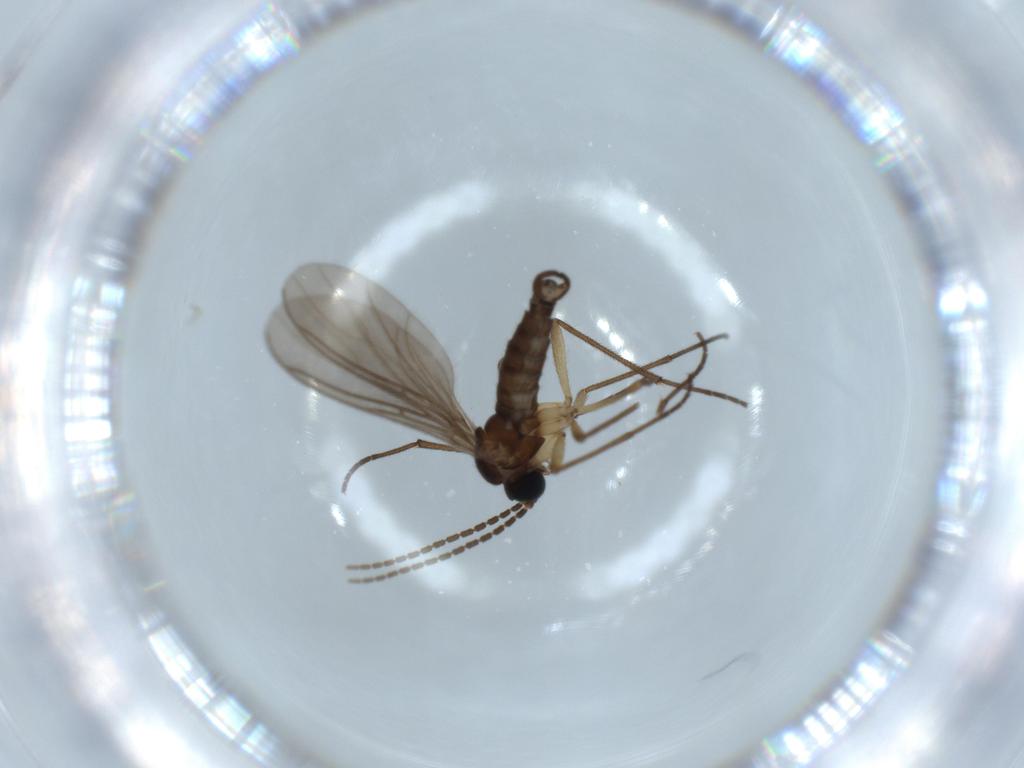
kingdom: Animalia
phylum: Arthropoda
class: Insecta
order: Diptera
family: Sciaridae
